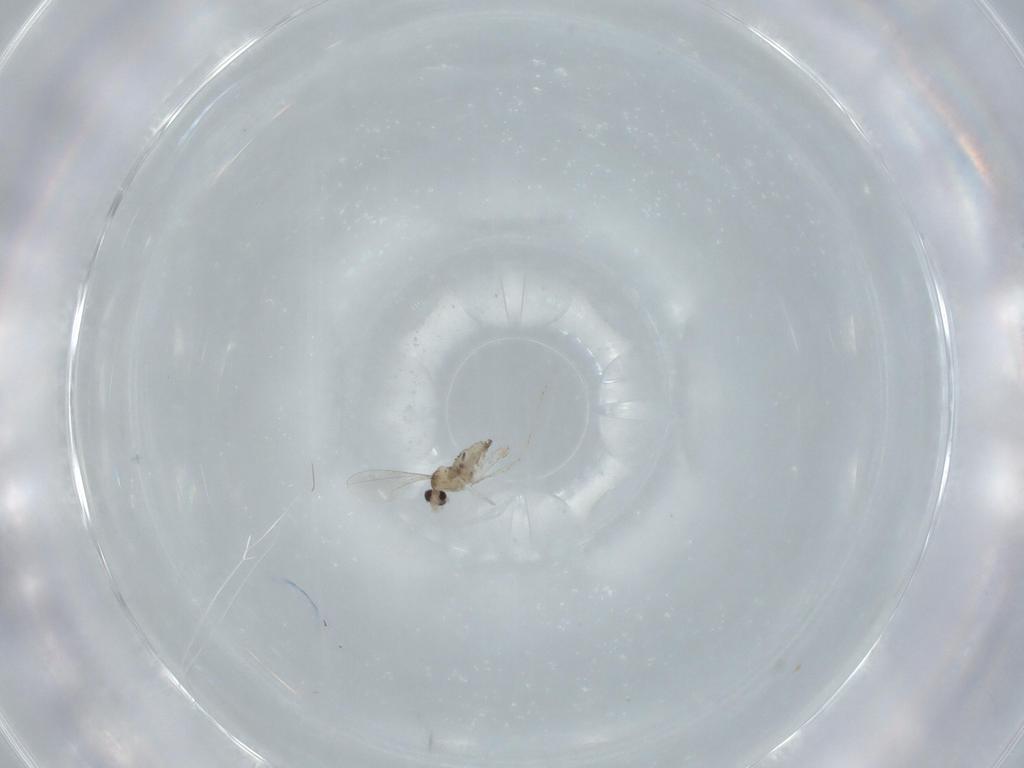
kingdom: Animalia
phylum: Arthropoda
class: Insecta
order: Diptera
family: Cecidomyiidae
